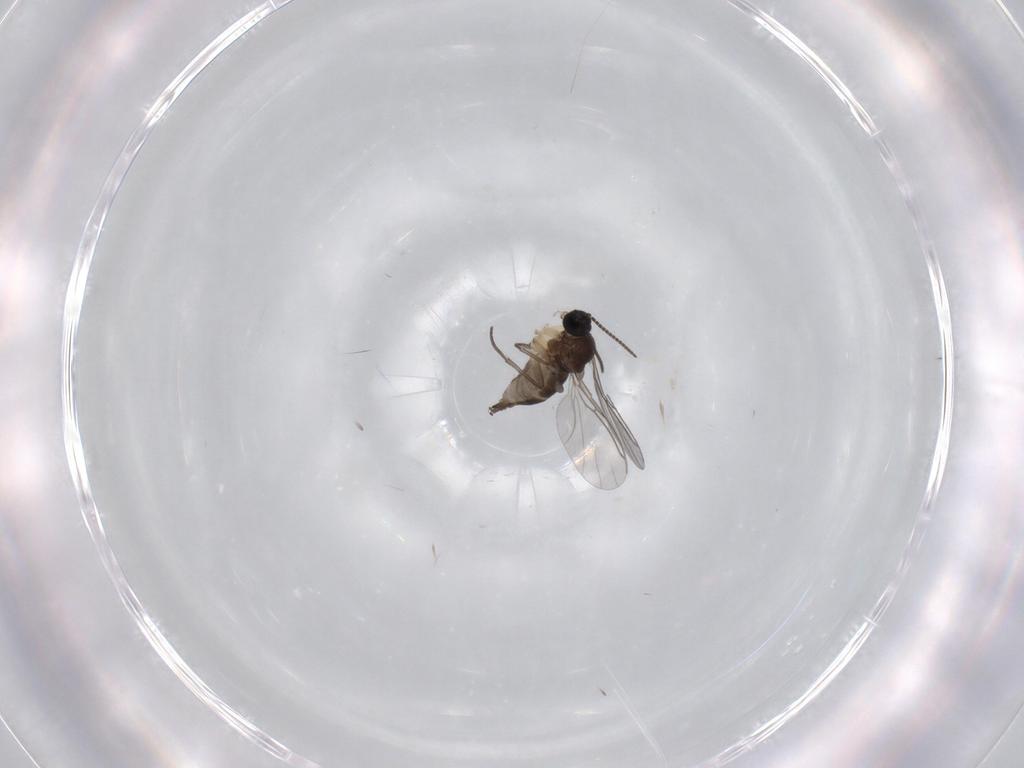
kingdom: Animalia
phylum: Arthropoda
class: Insecta
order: Diptera
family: Sciaridae
